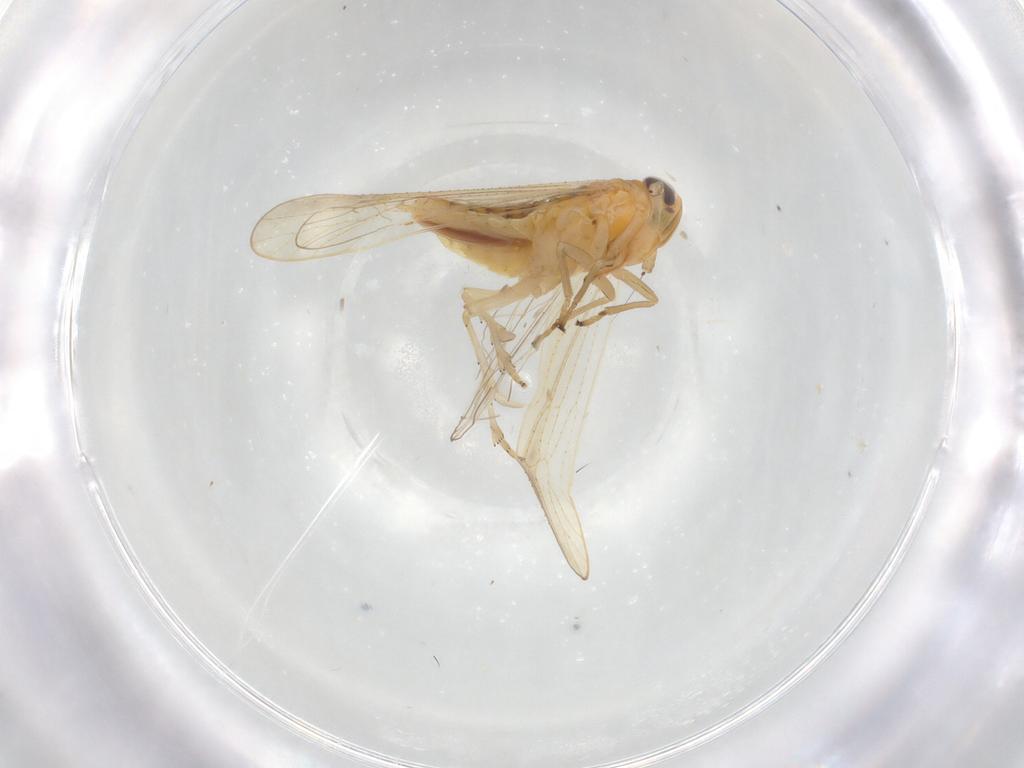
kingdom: Animalia
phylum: Arthropoda
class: Insecta
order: Hemiptera
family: Delphacidae
